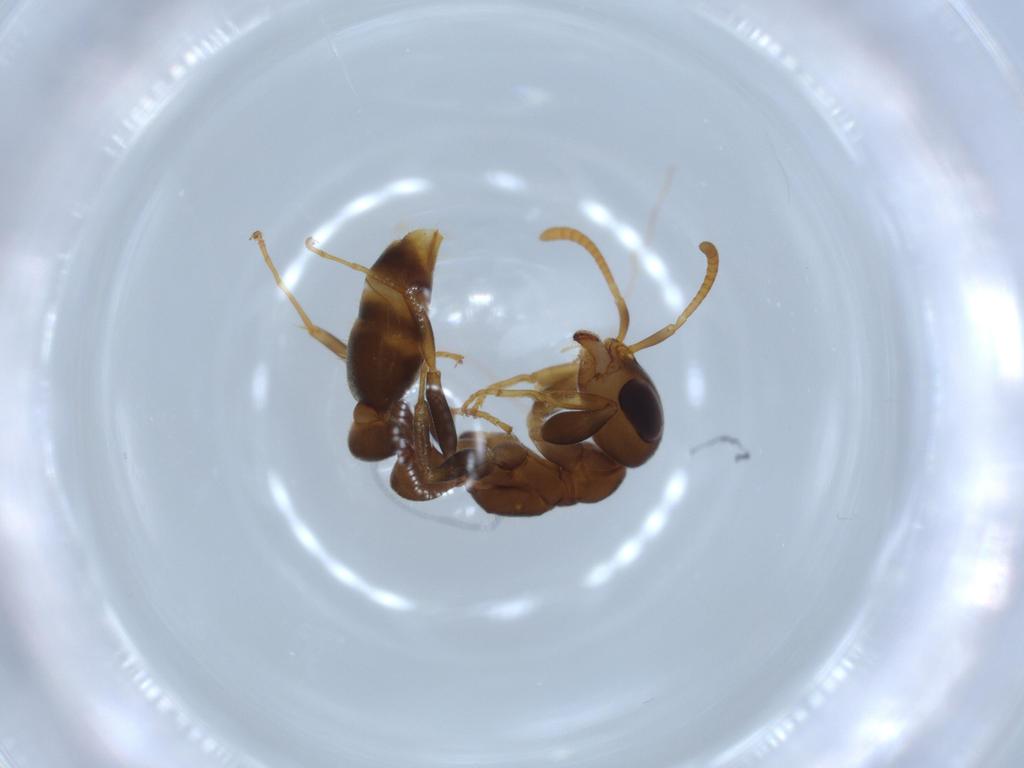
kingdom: Animalia
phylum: Arthropoda
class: Insecta
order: Hymenoptera
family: Formicidae
